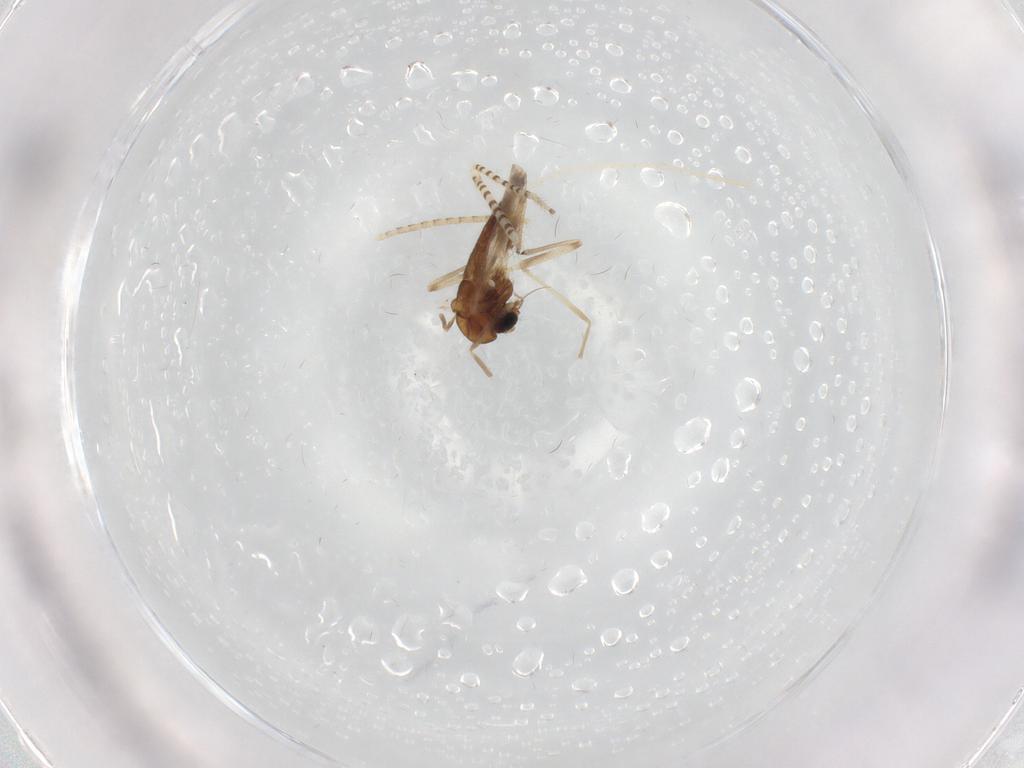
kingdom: Animalia
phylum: Arthropoda
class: Insecta
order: Diptera
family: Chironomidae
